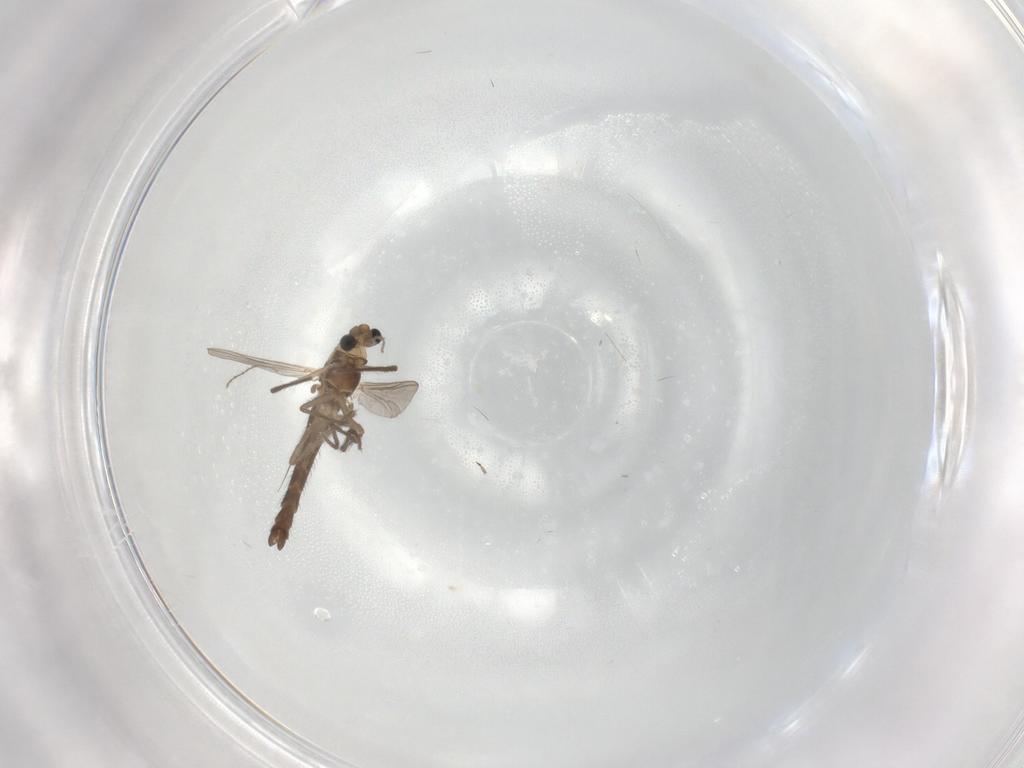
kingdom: Animalia
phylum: Arthropoda
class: Insecta
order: Diptera
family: Chironomidae
